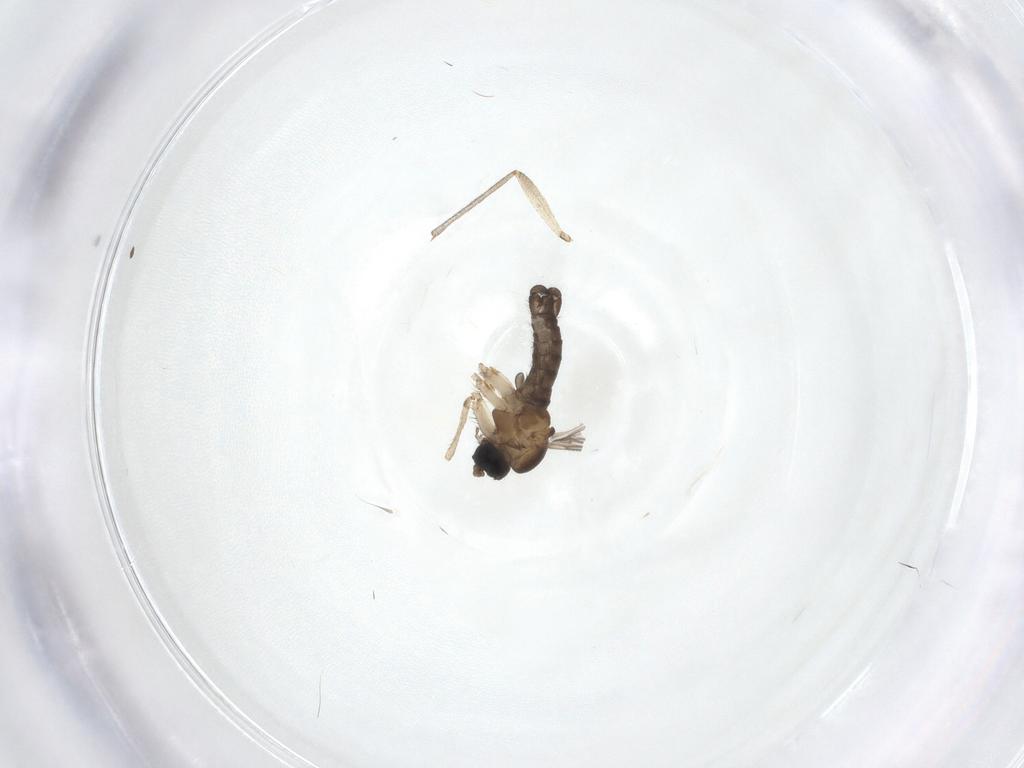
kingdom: Animalia
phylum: Arthropoda
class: Insecta
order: Diptera
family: Sciaridae
